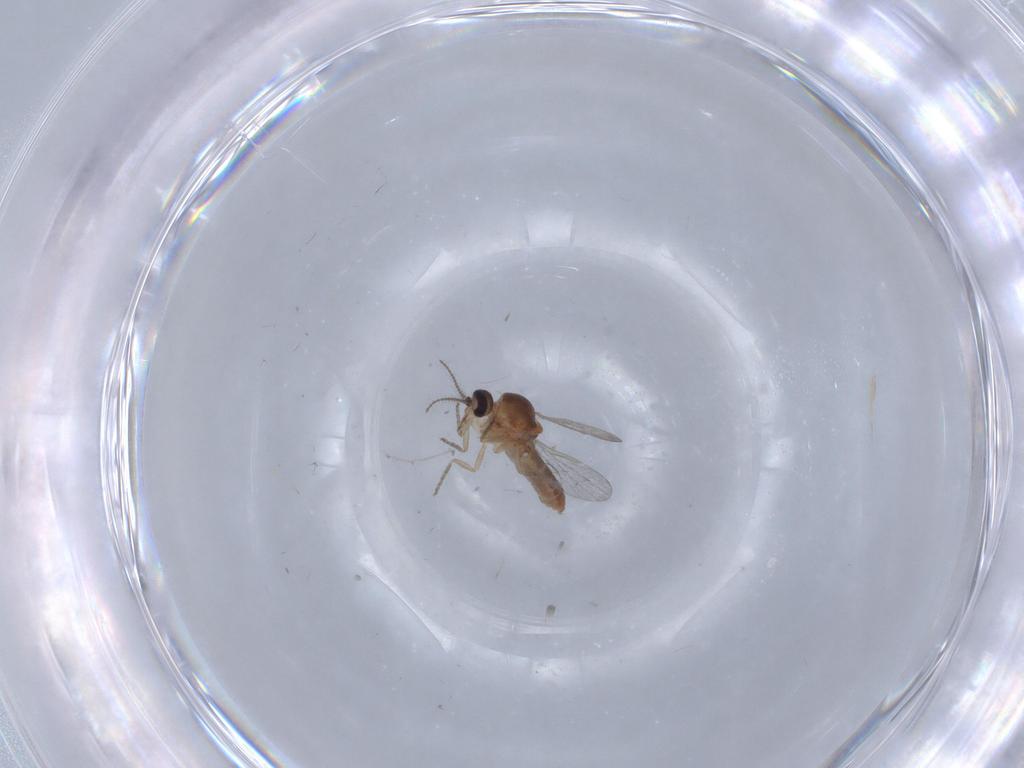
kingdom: Animalia
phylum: Arthropoda
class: Insecta
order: Diptera
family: Ceratopogonidae
